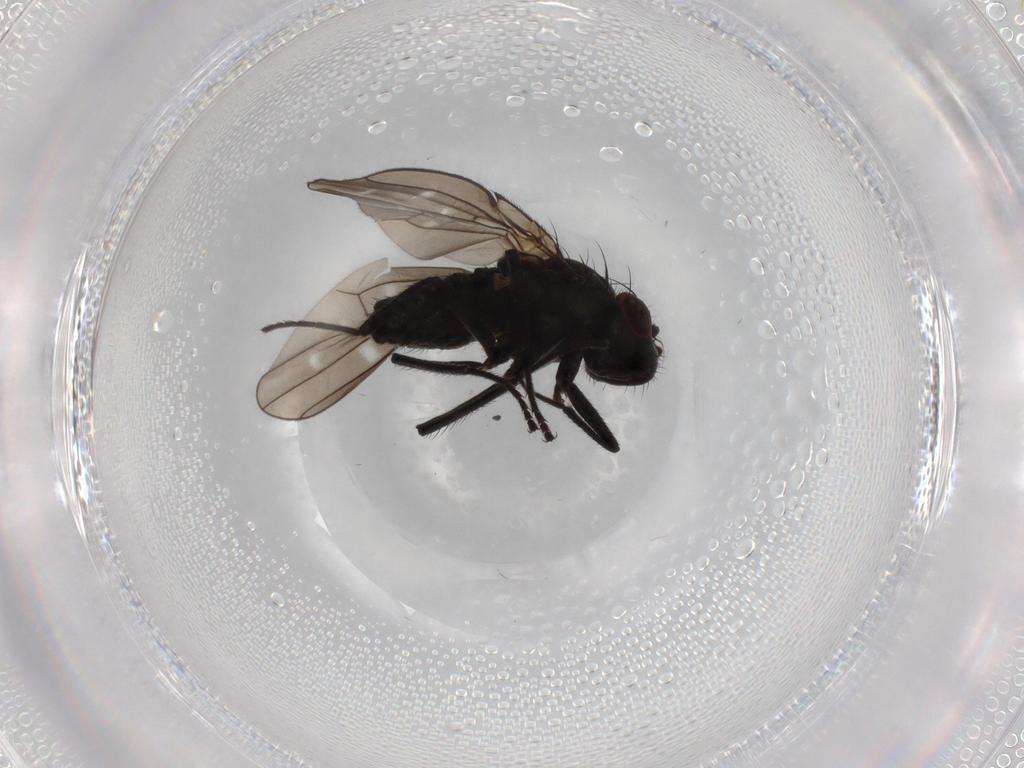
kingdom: Animalia
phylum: Arthropoda
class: Insecta
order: Diptera
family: Ephydridae
